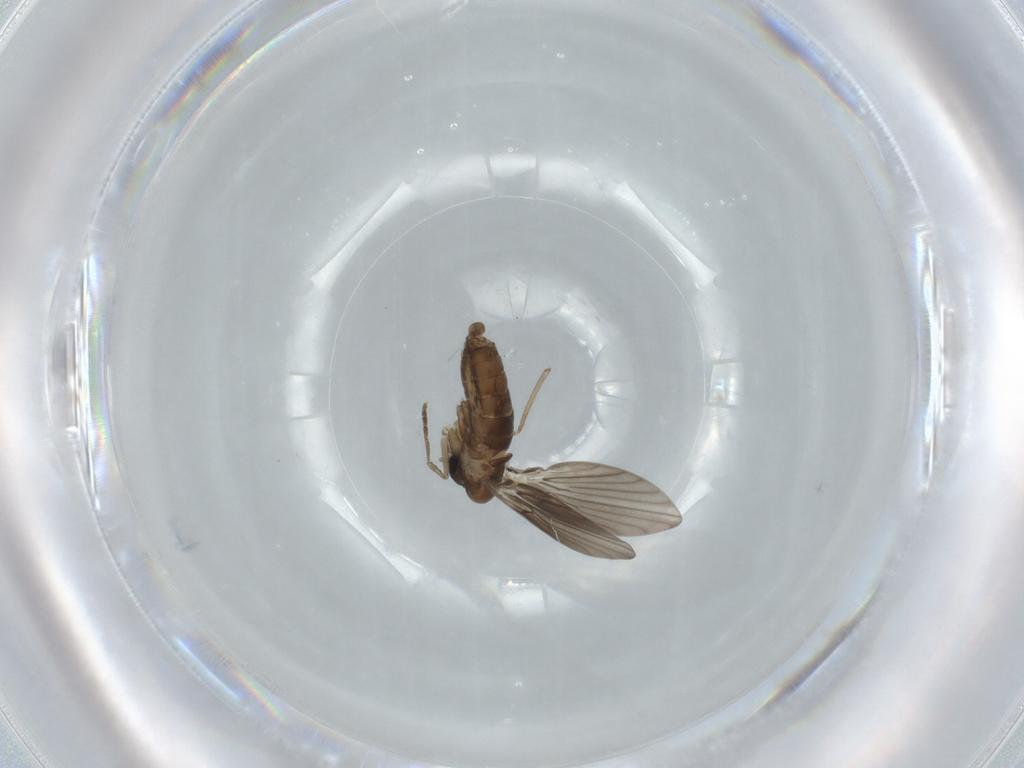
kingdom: Animalia
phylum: Arthropoda
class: Insecta
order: Diptera
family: Psychodidae
